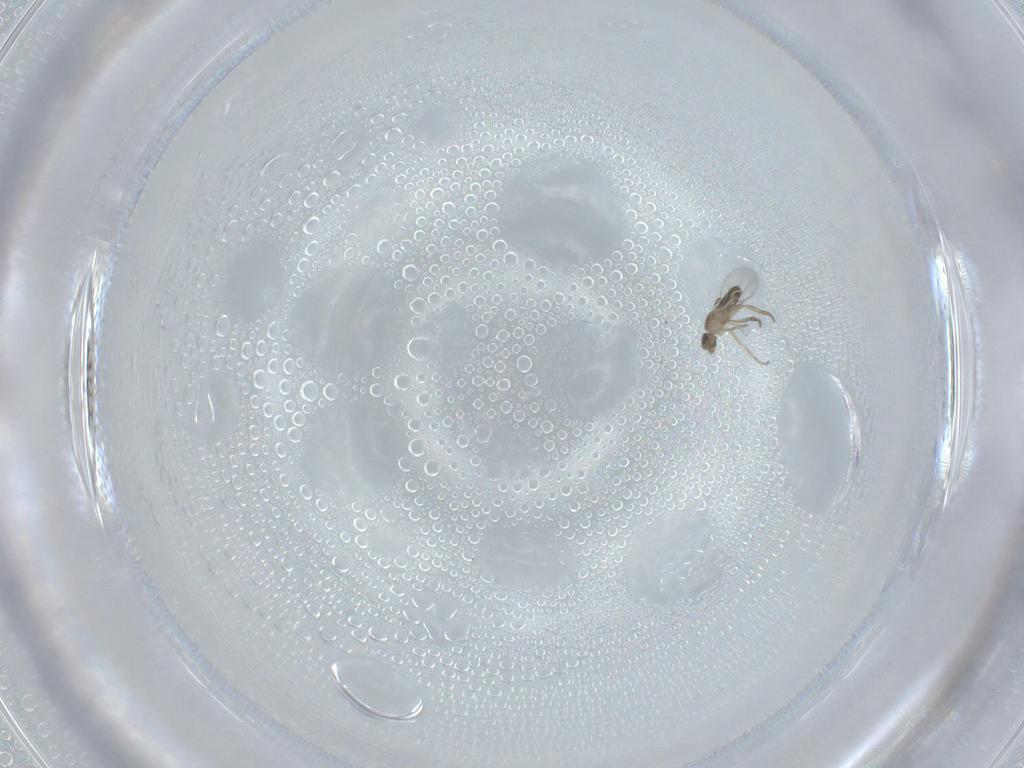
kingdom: Animalia
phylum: Arthropoda
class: Insecta
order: Diptera
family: Phoridae
